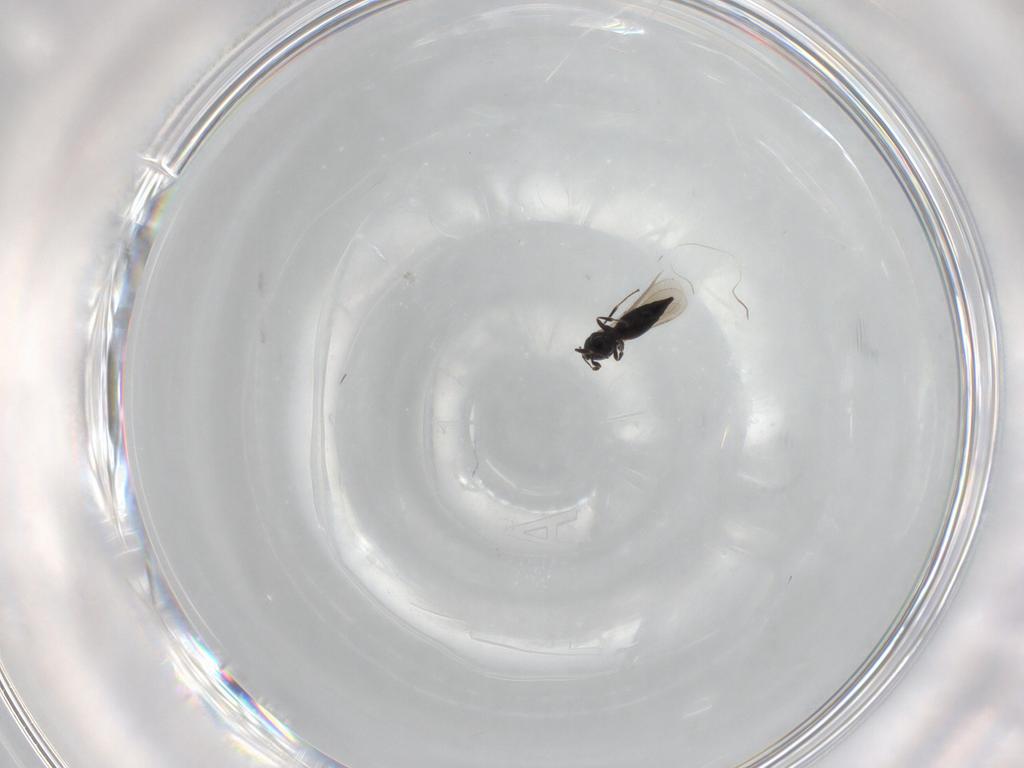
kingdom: Animalia
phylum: Arthropoda
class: Insecta
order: Hymenoptera
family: Vespidae
